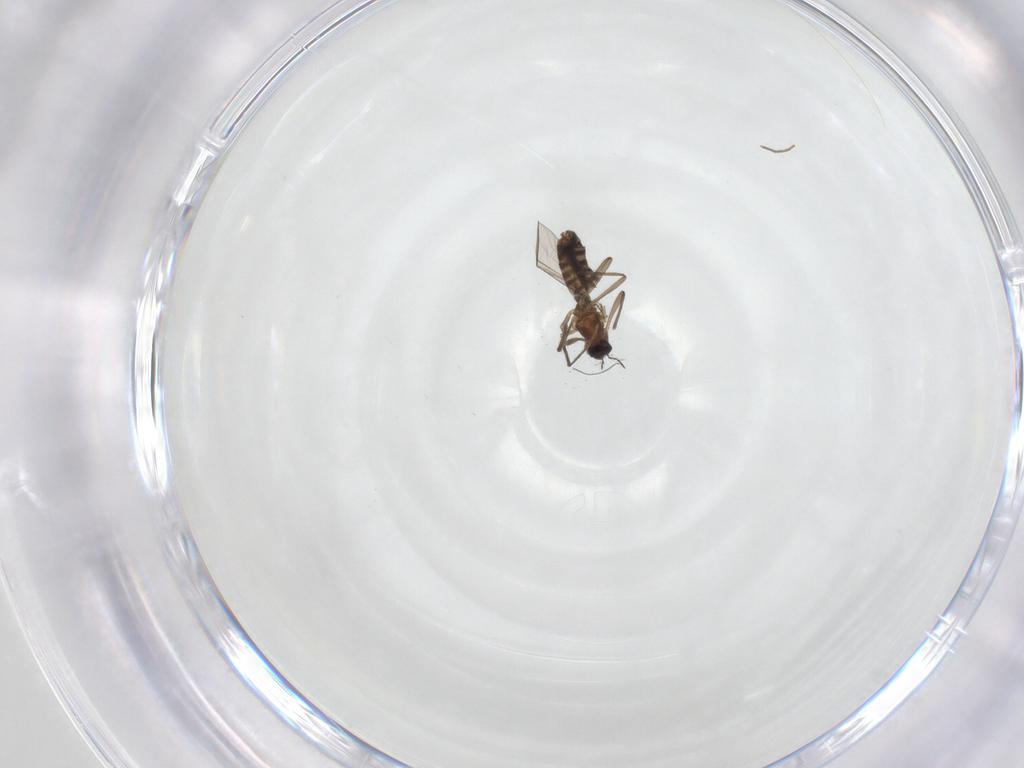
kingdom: Animalia
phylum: Arthropoda
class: Insecta
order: Diptera
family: Chironomidae
